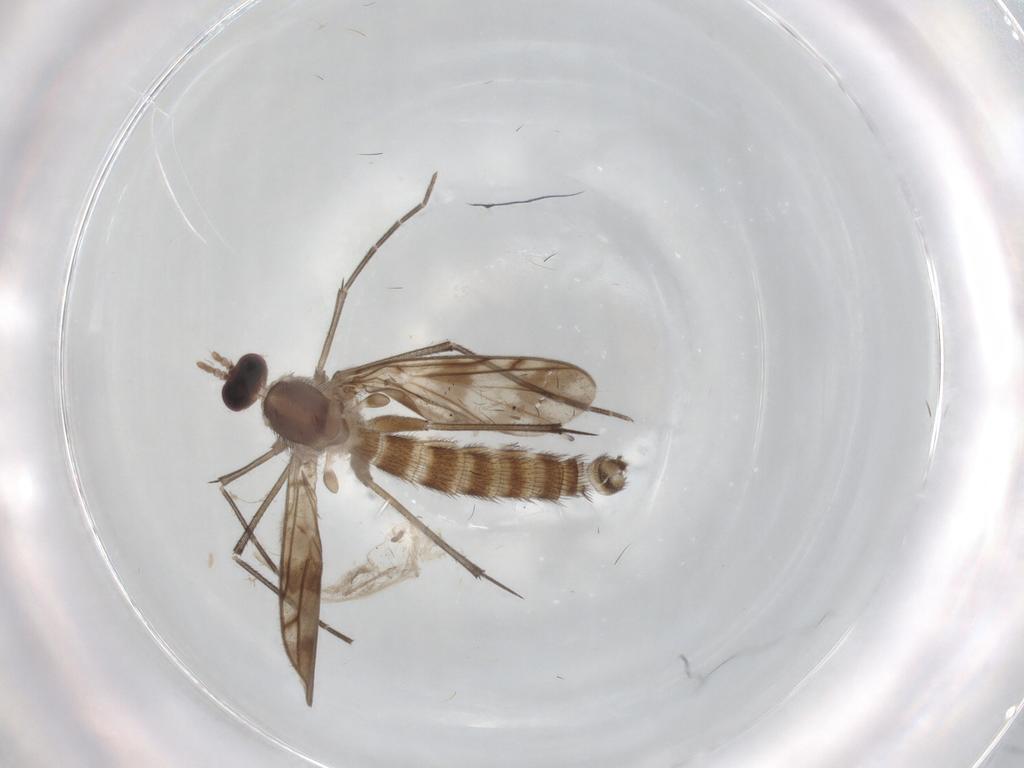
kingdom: Animalia
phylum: Arthropoda
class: Insecta
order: Diptera
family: Keroplatidae
